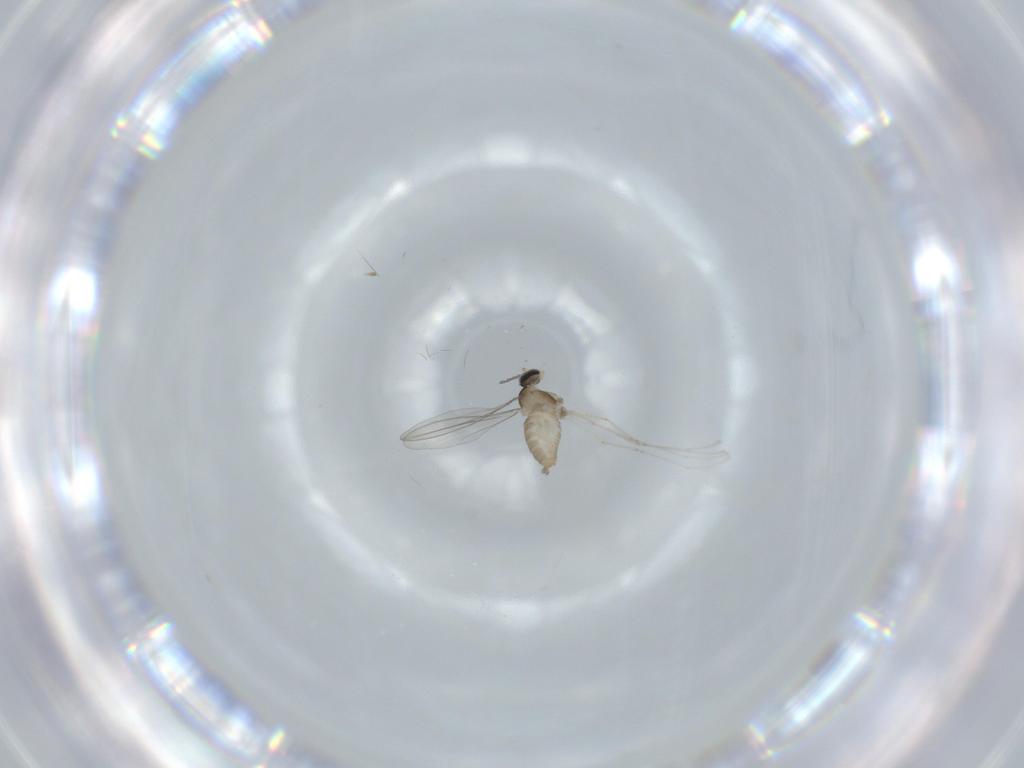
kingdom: Animalia
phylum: Arthropoda
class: Insecta
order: Diptera
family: Cecidomyiidae
